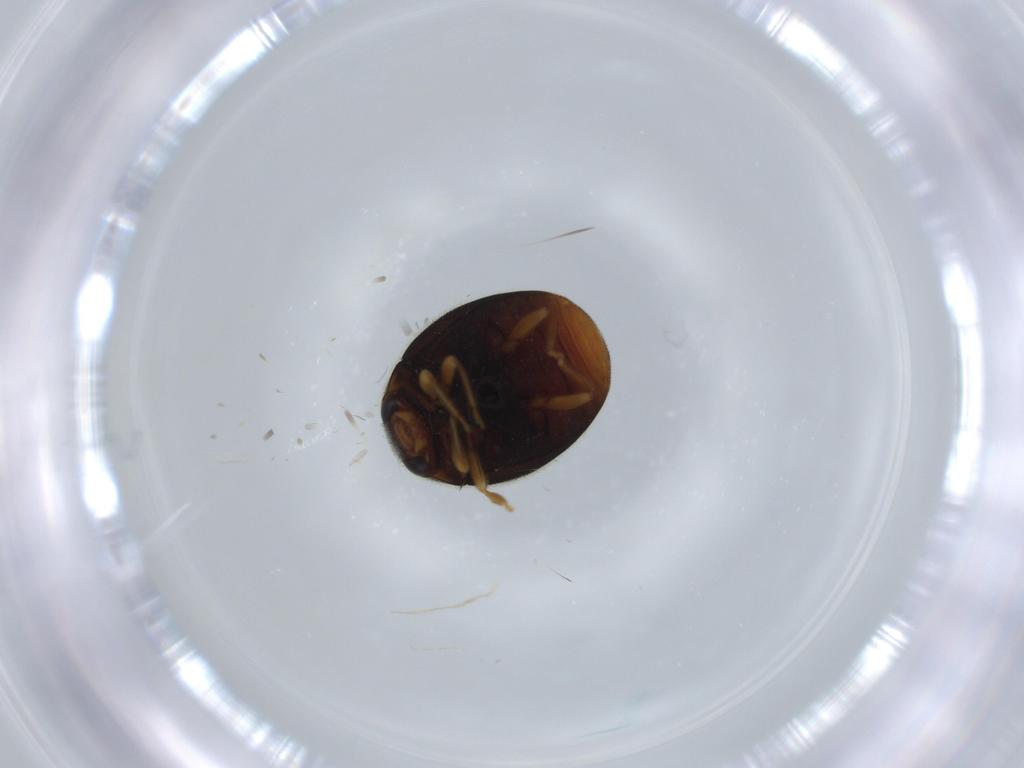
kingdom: Animalia
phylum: Arthropoda
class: Insecta
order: Coleoptera
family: Coccinellidae
